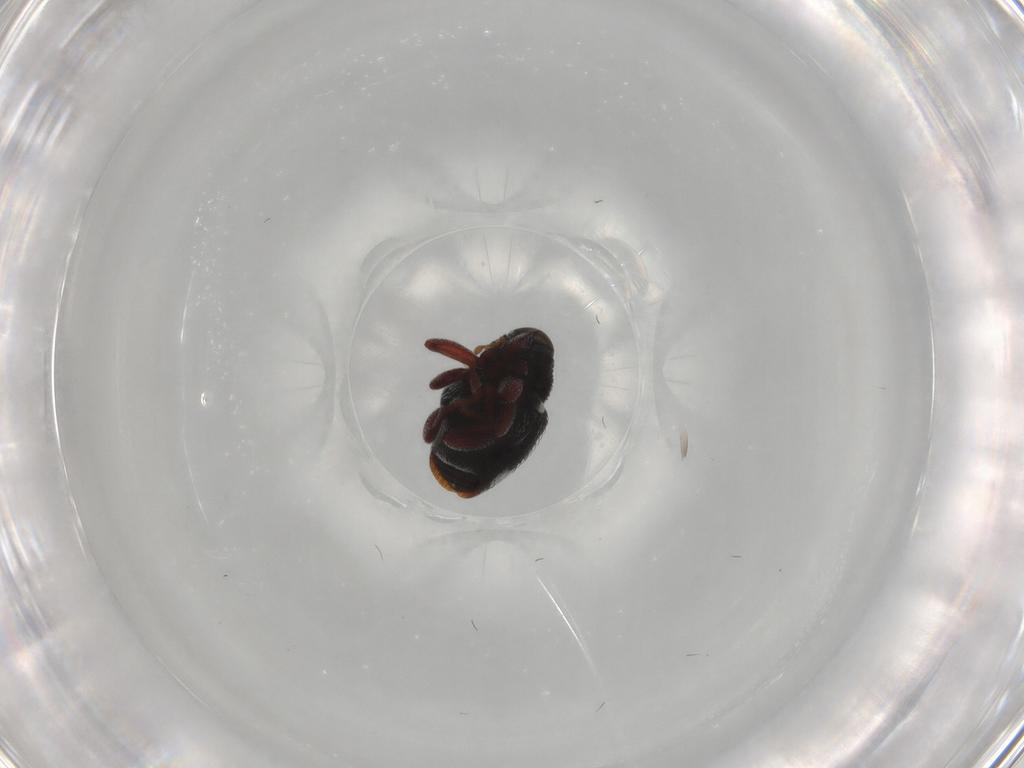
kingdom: Animalia
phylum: Arthropoda
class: Insecta
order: Coleoptera
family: Curculionidae
